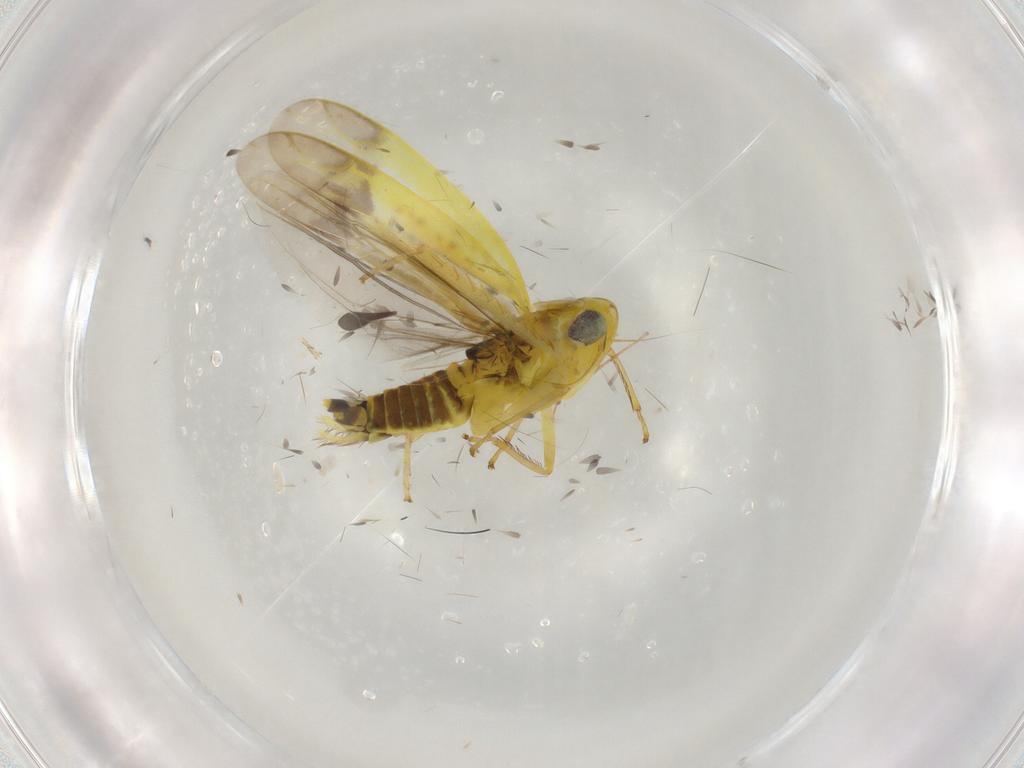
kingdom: Animalia
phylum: Arthropoda
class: Insecta
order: Hemiptera
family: Cicadellidae
